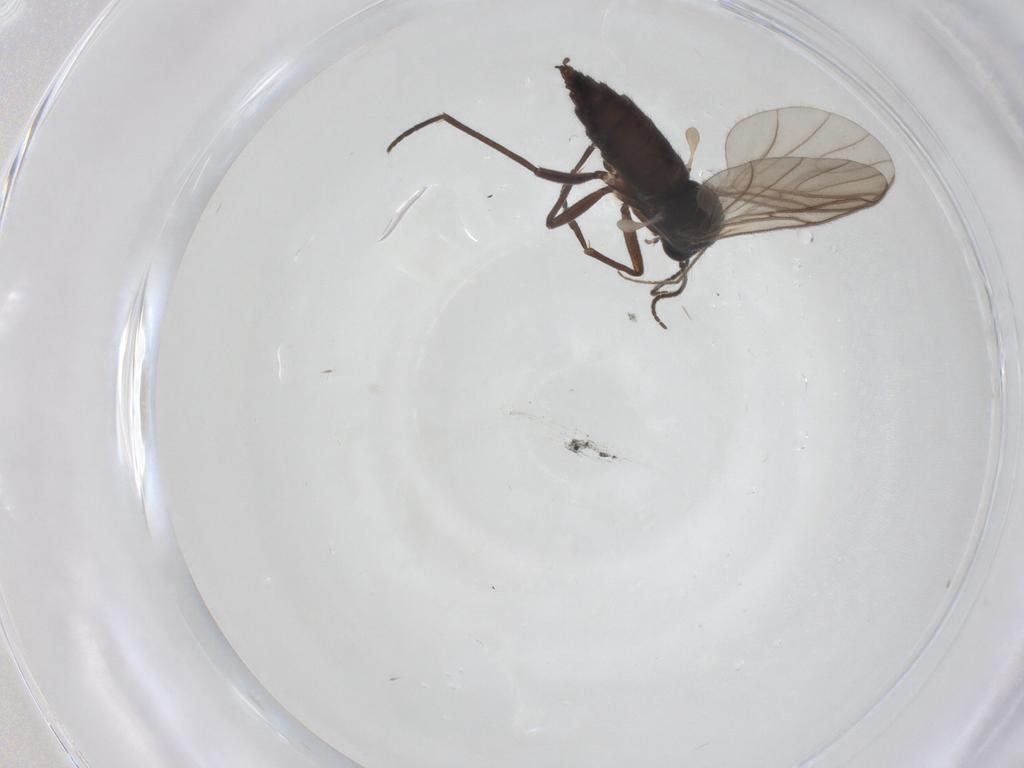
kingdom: Animalia
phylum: Arthropoda
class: Insecta
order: Diptera
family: Sciaridae
